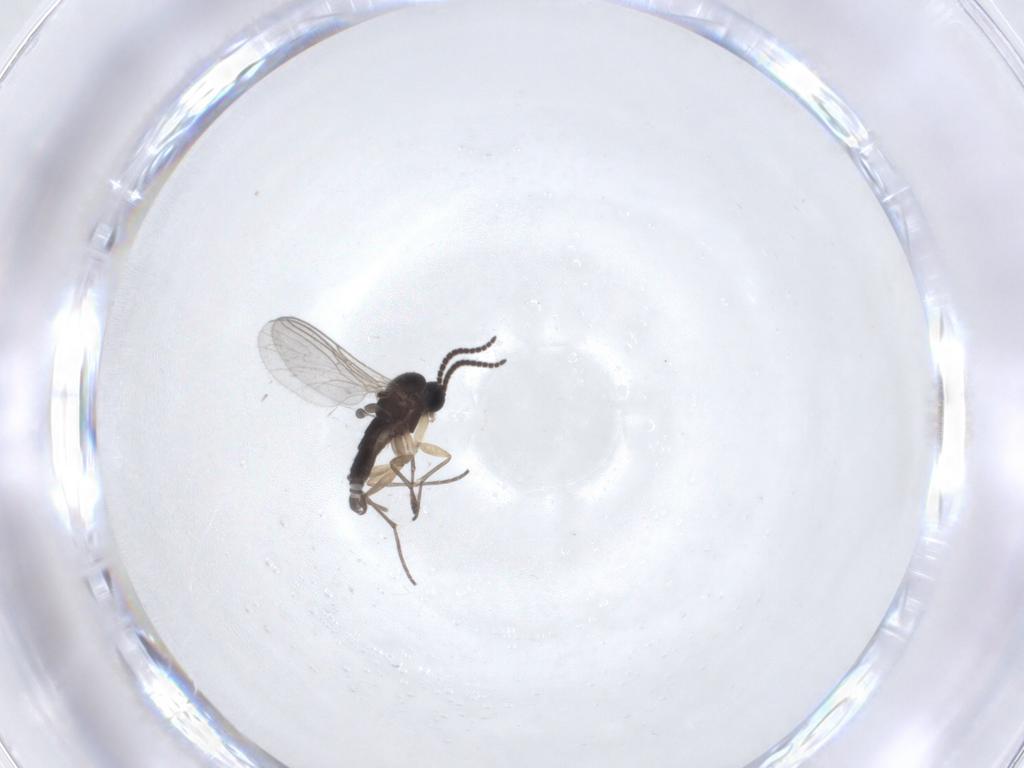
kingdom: Animalia
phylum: Arthropoda
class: Insecta
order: Diptera
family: Sciaridae
